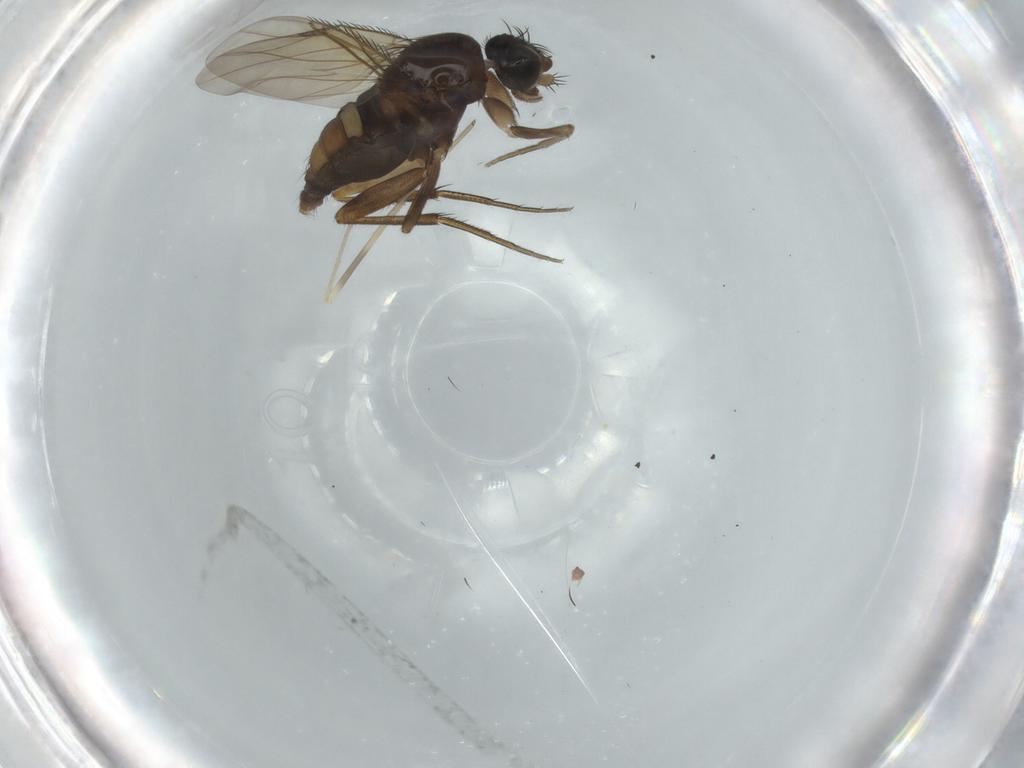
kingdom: Animalia
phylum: Arthropoda
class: Insecta
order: Diptera
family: Phoridae
